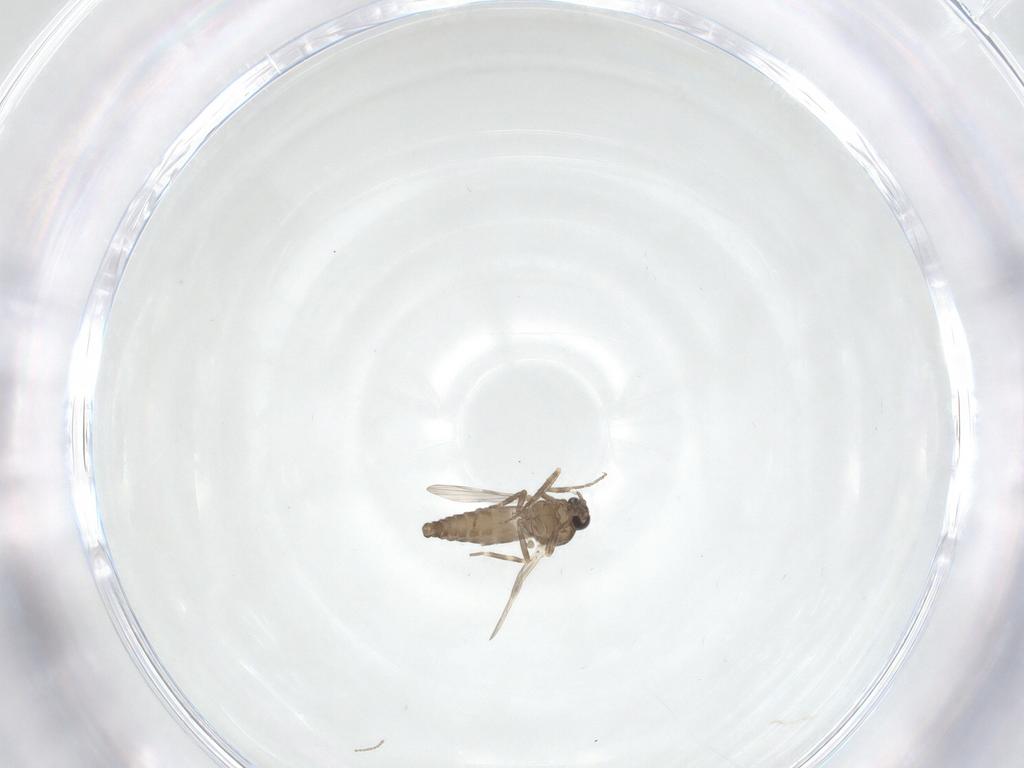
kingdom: Animalia
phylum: Arthropoda
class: Insecta
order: Diptera
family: Ceratopogonidae
